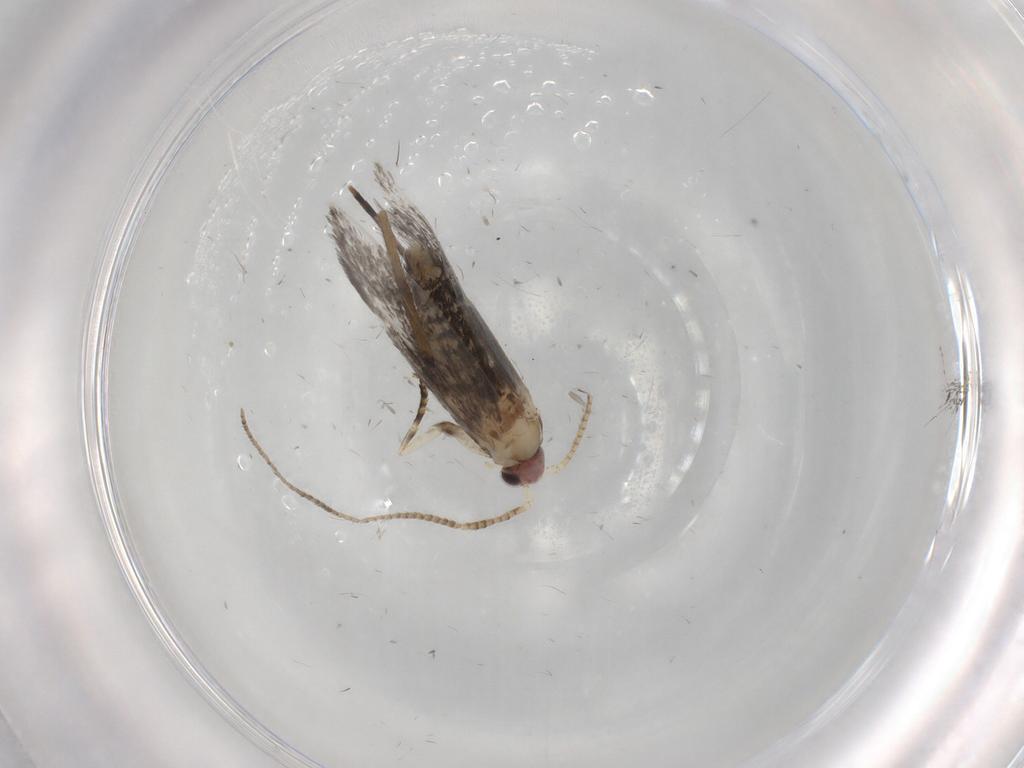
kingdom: Animalia
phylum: Arthropoda
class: Insecta
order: Lepidoptera
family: Tineidae
